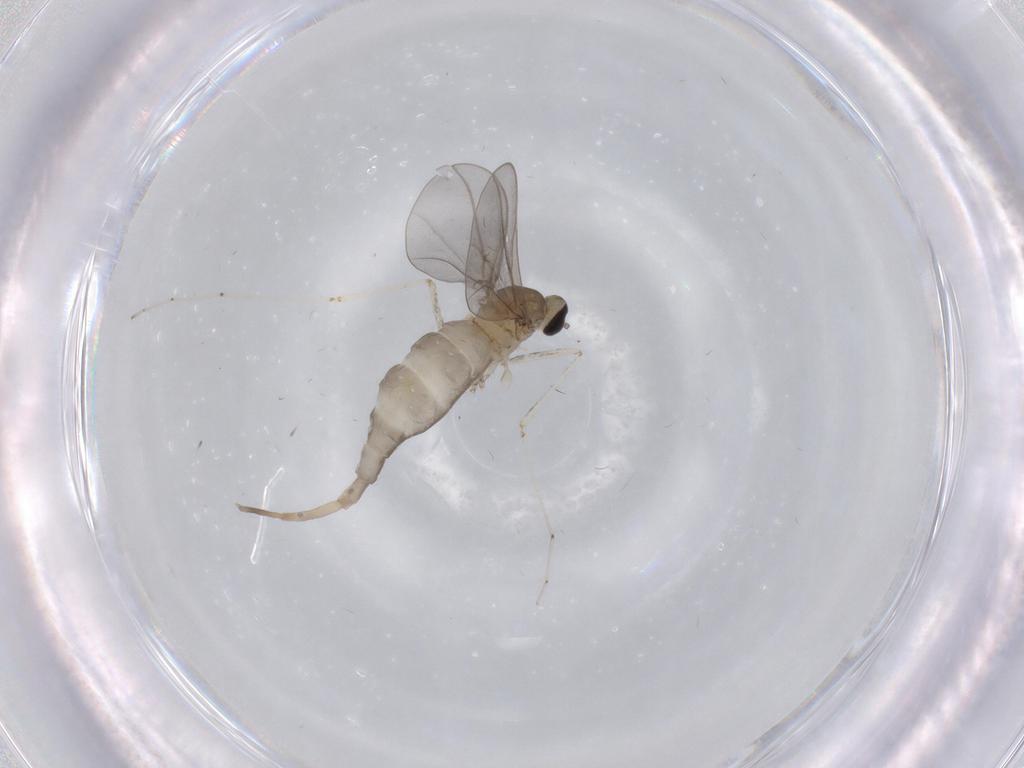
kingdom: Animalia
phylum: Arthropoda
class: Insecta
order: Diptera
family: Cecidomyiidae
